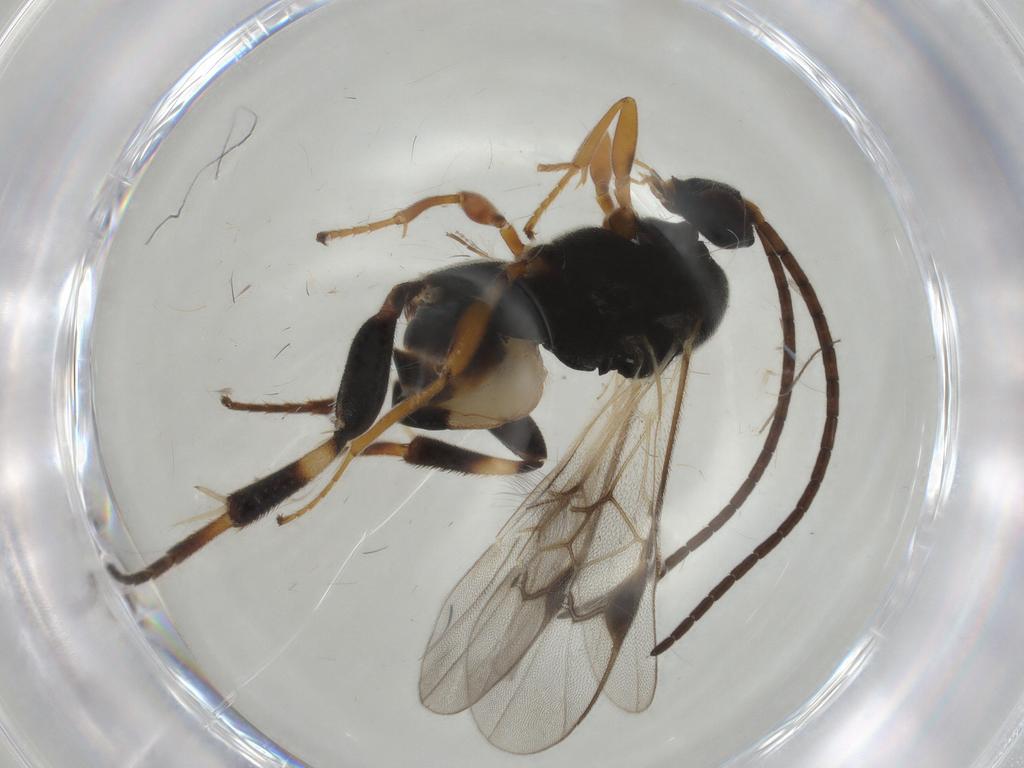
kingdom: Animalia
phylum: Arthropoda
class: Insecta
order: Hymenoptera
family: Braconidae
